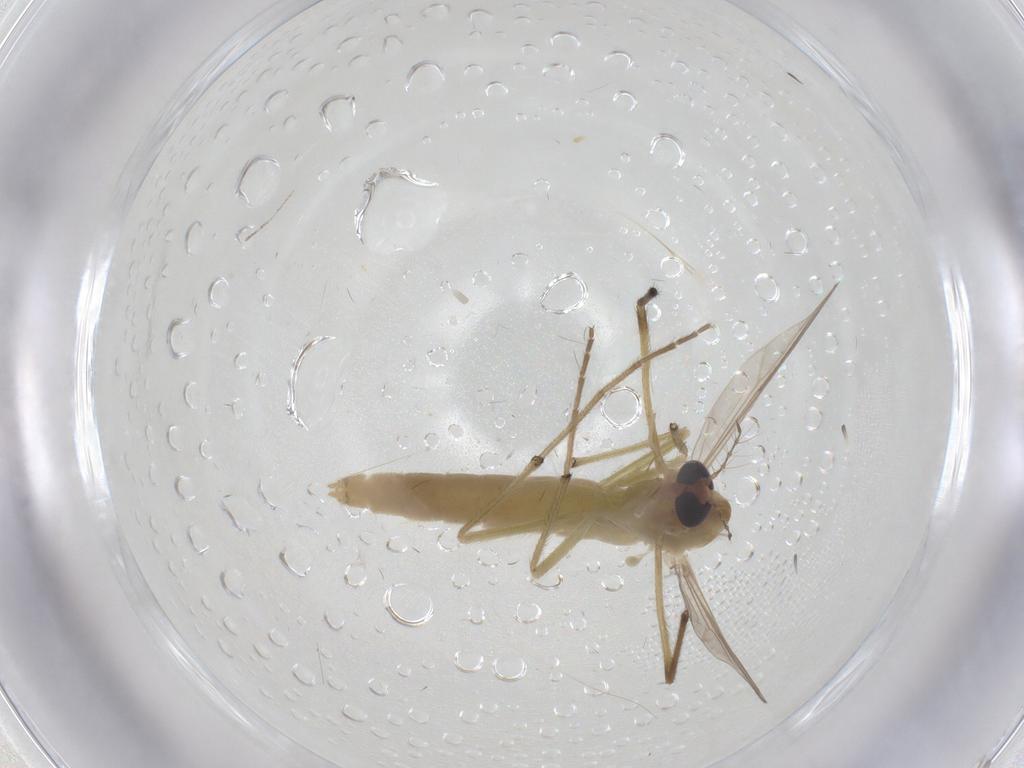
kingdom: Animalia
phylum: Arthropoda
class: Insecta
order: Diptera
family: Chironomidae
